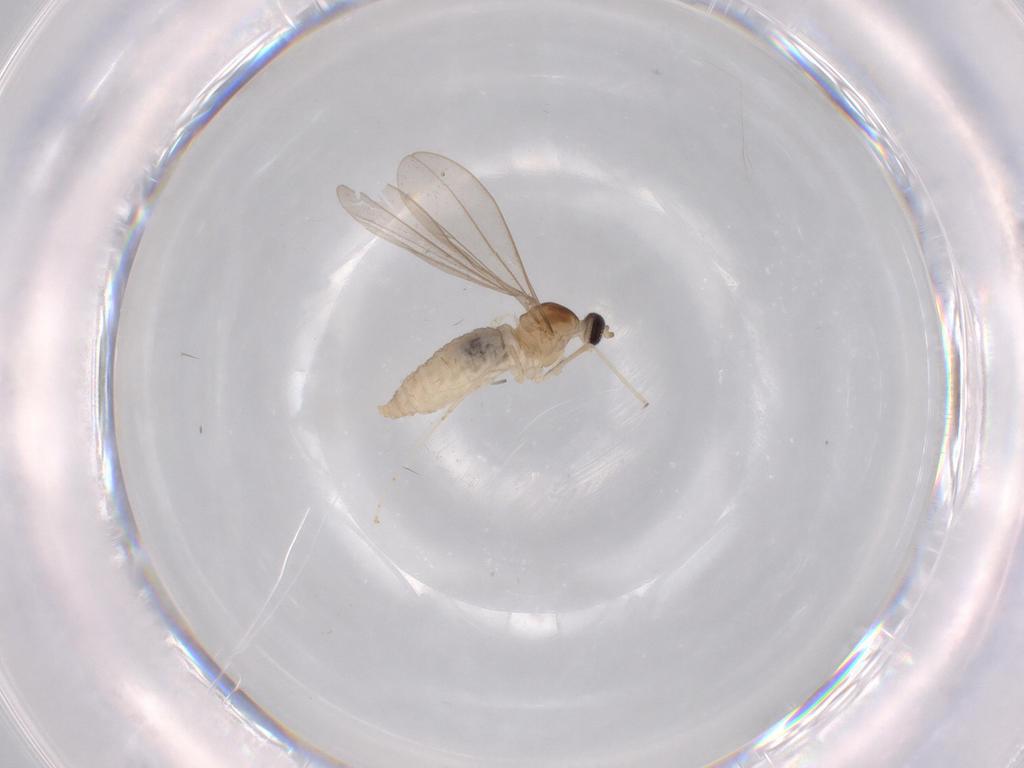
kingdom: Animalia
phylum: Arthropoda
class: Insecta
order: Diptera
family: Cecidomyiidae
